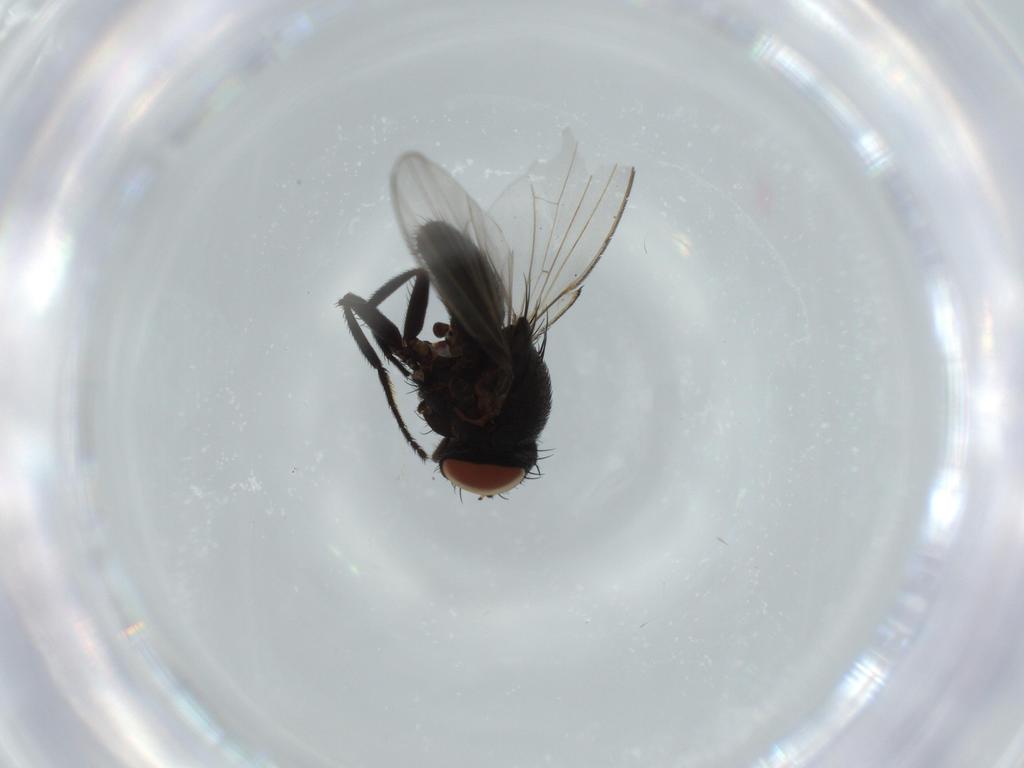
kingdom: Animalia
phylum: Arthropoda
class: Insecta
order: Diptera
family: Milichiidae
